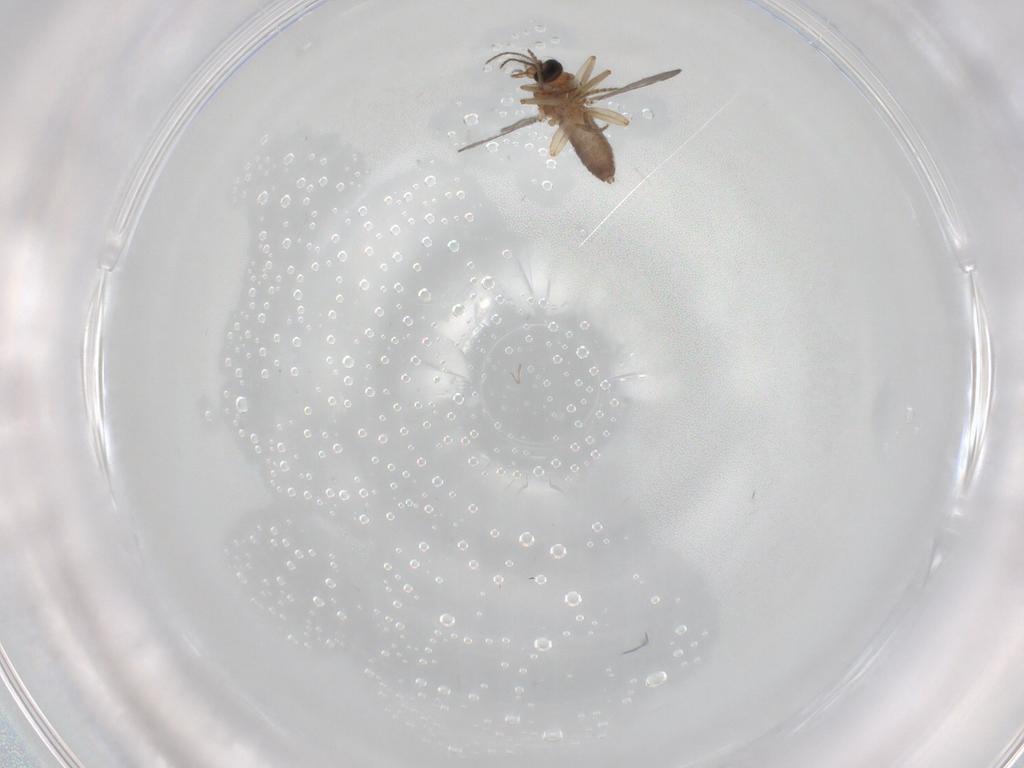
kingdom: Animalia
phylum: Arthropoda
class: Insecta
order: Diptera
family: Ceratopogonidae
